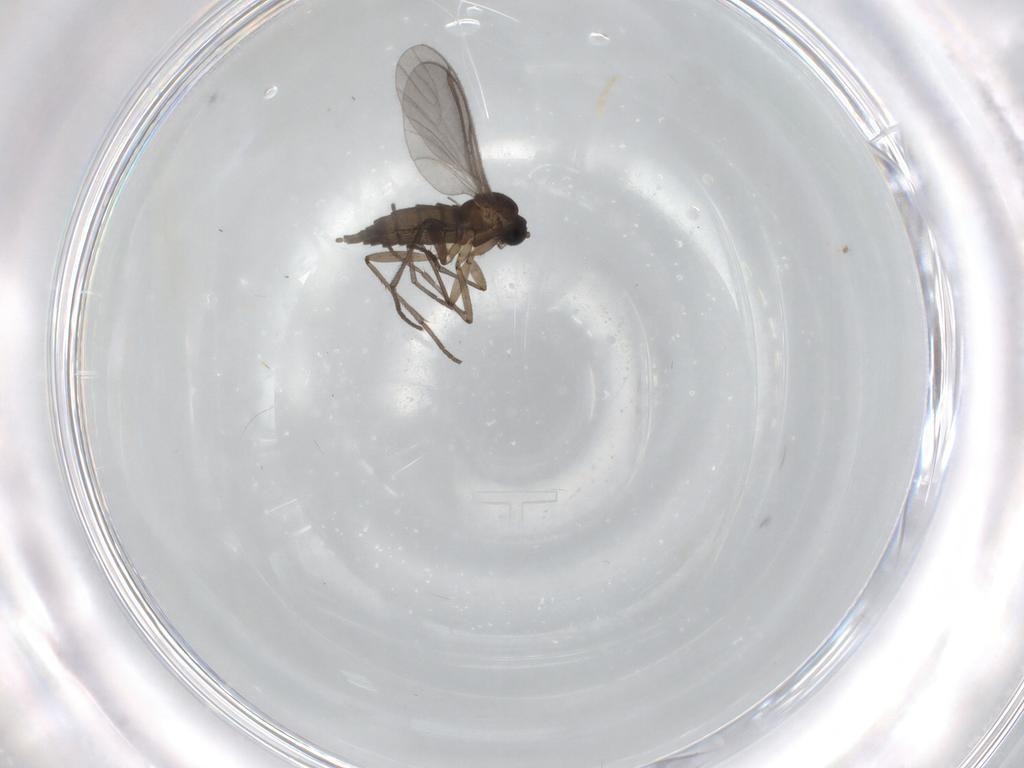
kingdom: Animalia
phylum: Arthropoda
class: Insecta
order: Diptera
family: Sciaridae
